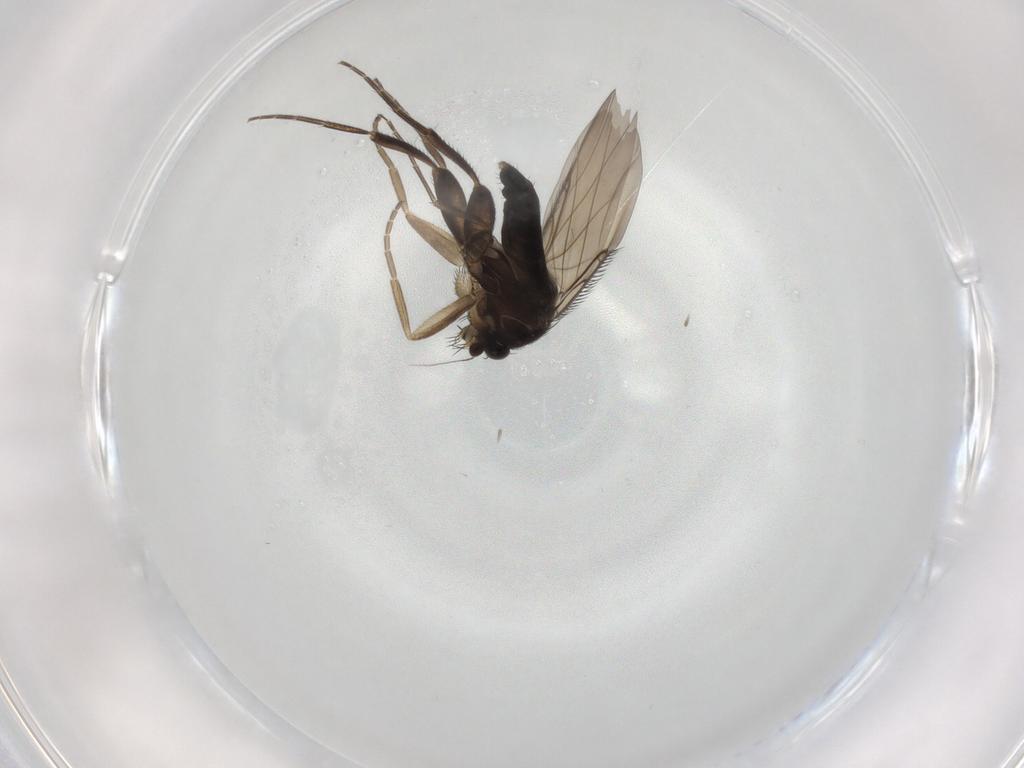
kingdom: Animalia
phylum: Arthropoda
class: Insecta
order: Diptera
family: Phoridae
